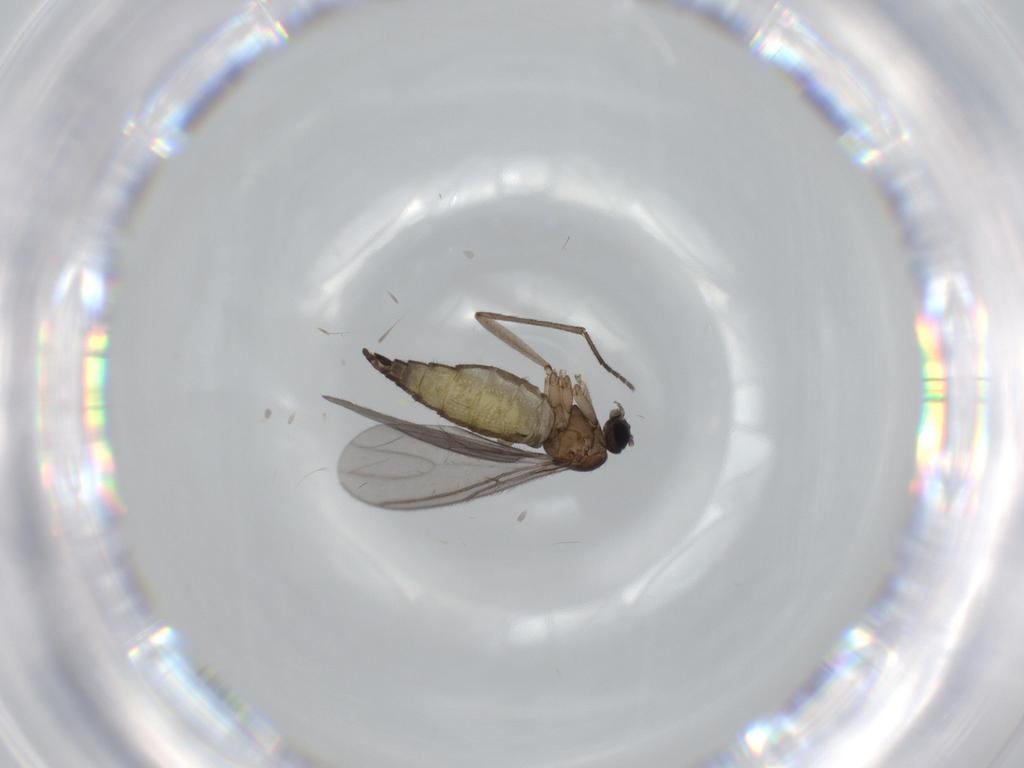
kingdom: Animalia
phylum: Arthropoda
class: Insecta
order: Diptera
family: Sciaridae
